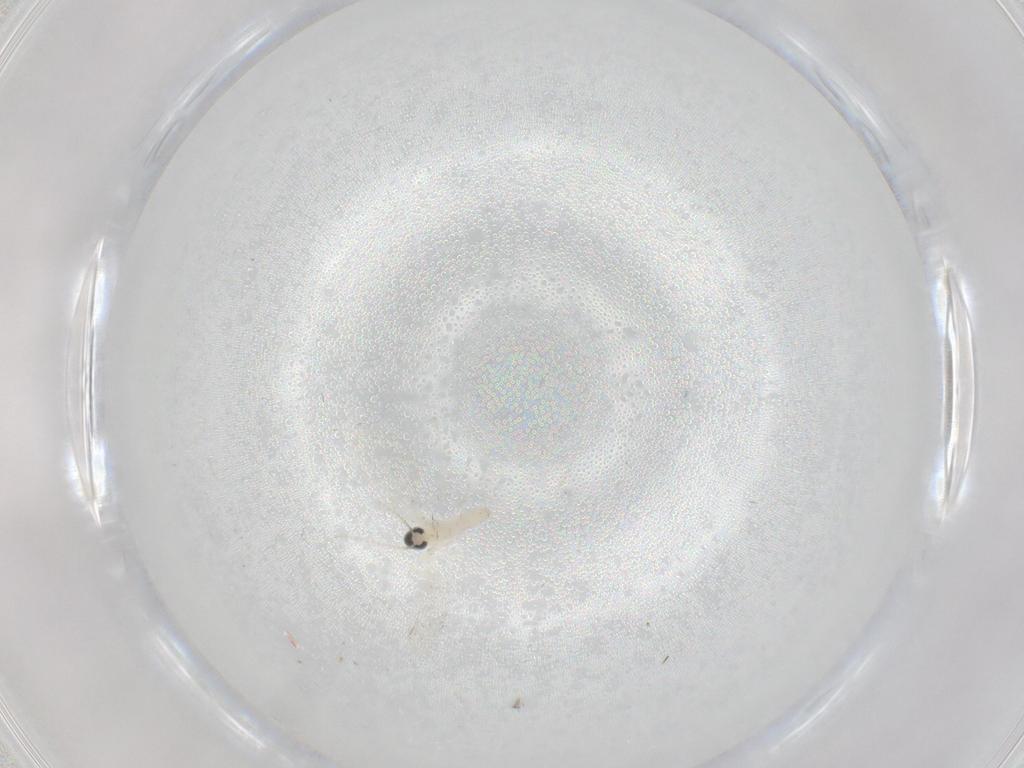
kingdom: Animalia
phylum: Arthropoda
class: Insecta
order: Diptera
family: Cecidomyiidae
